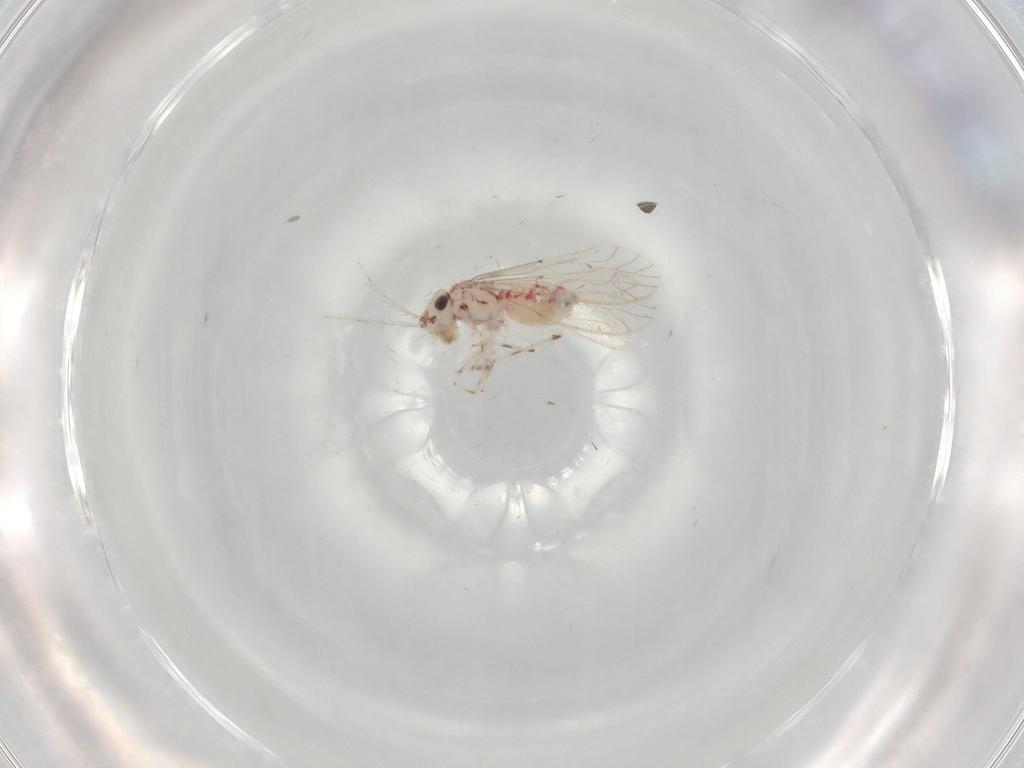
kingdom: Animalia
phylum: Arthropoda
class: Insecta
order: Psocodea
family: Caeciliusidae
